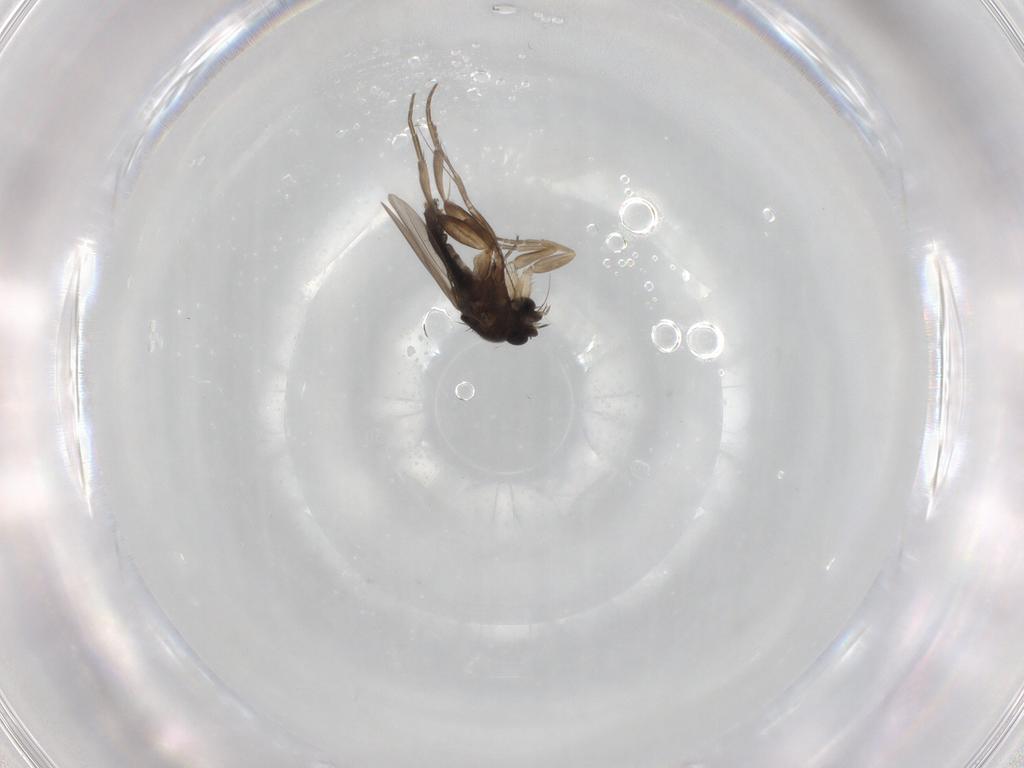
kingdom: Animalia
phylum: Arthropoda
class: Insecta
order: Diptera
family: Phoridae
